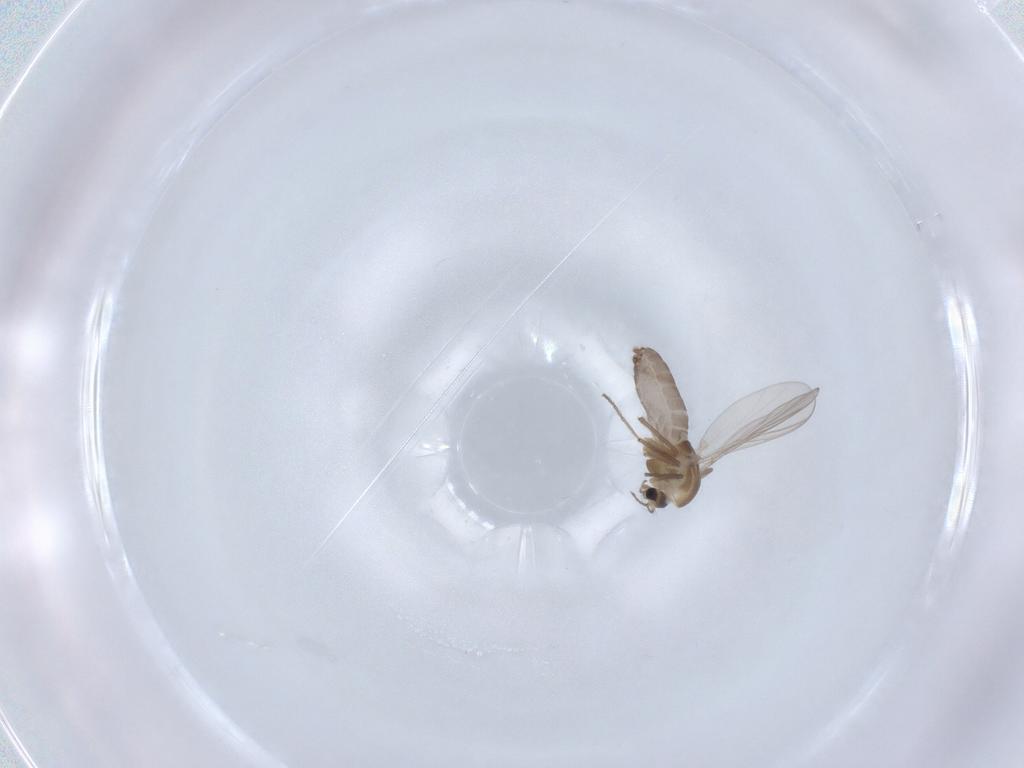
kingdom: Animalia
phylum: Arthropoda
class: Insecta
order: Diptera
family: Chironomidae
